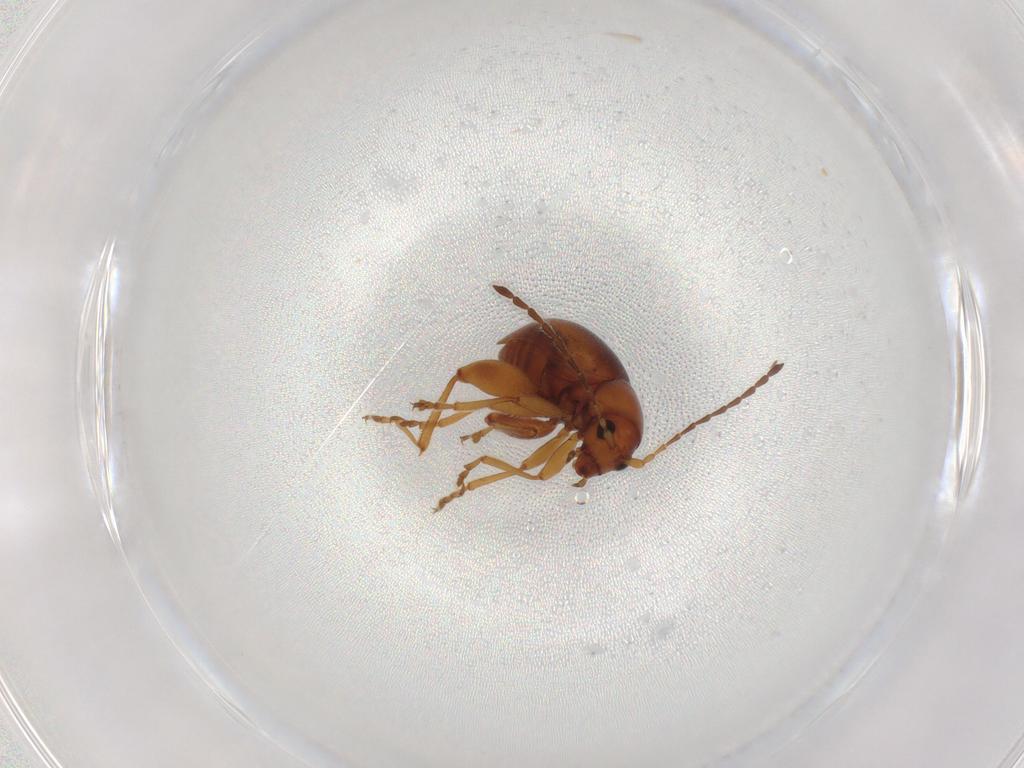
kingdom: Animalia
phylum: Arthropoda
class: Insecta
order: Coleoptera
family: Chrysomelidae
